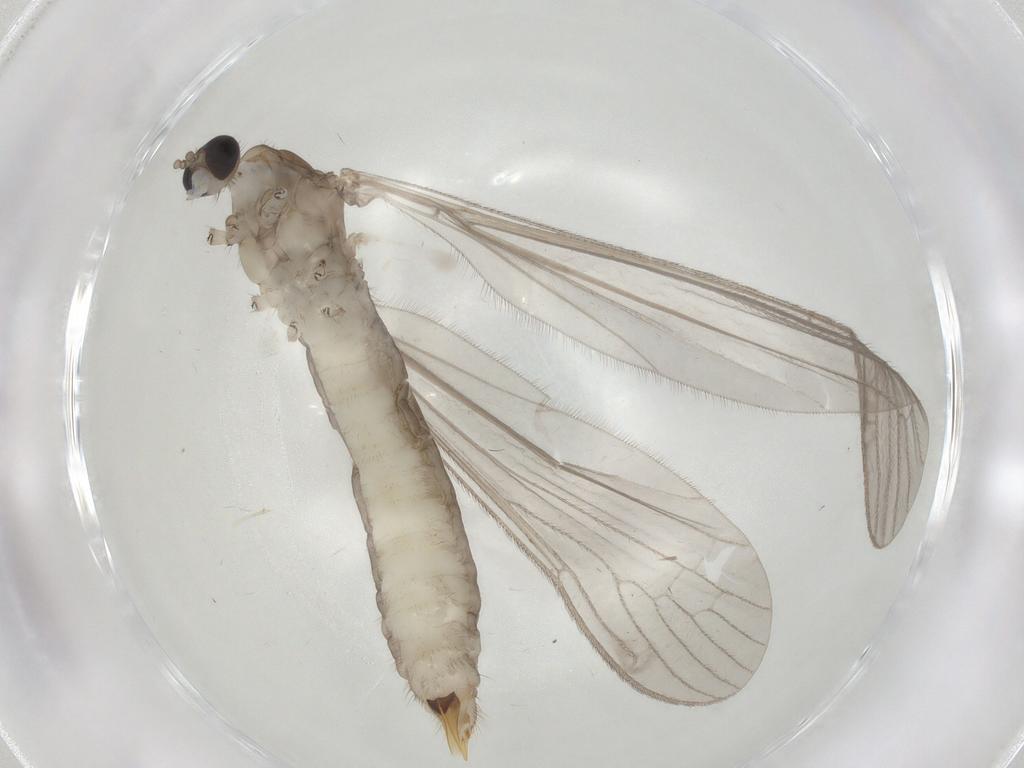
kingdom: Animalia
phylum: Arthropoda
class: Insecta
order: Diptera
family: Limoniidae
